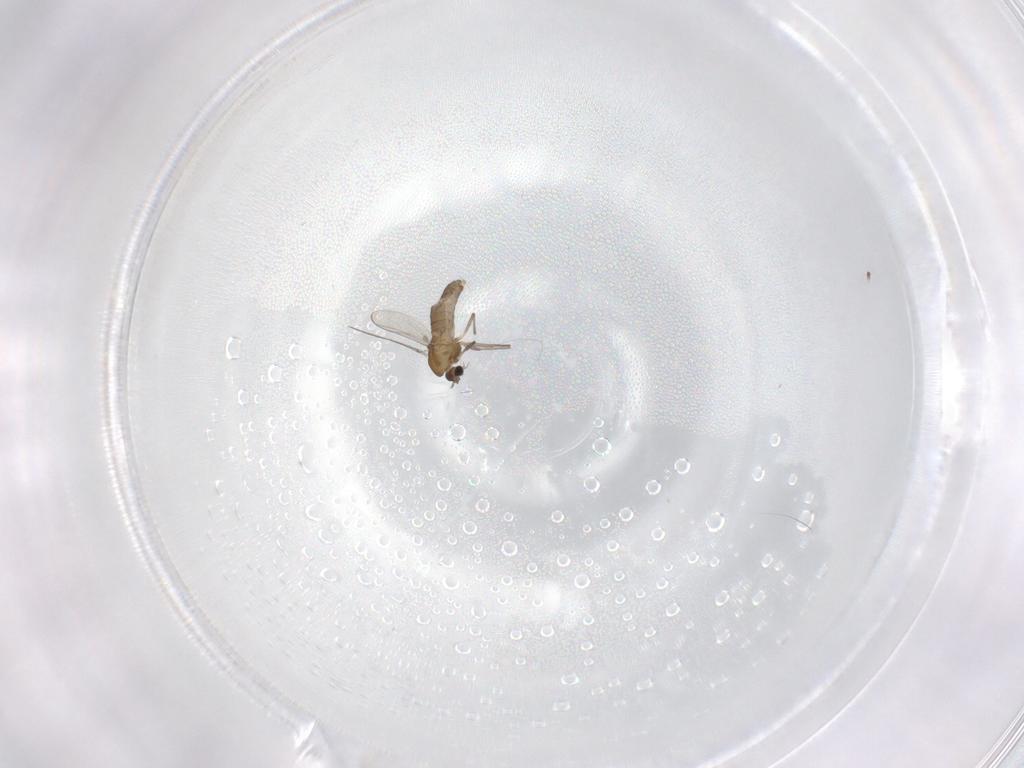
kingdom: Animalia
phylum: Arthropoda
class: Insecta
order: Diptera
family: Chironomidae
